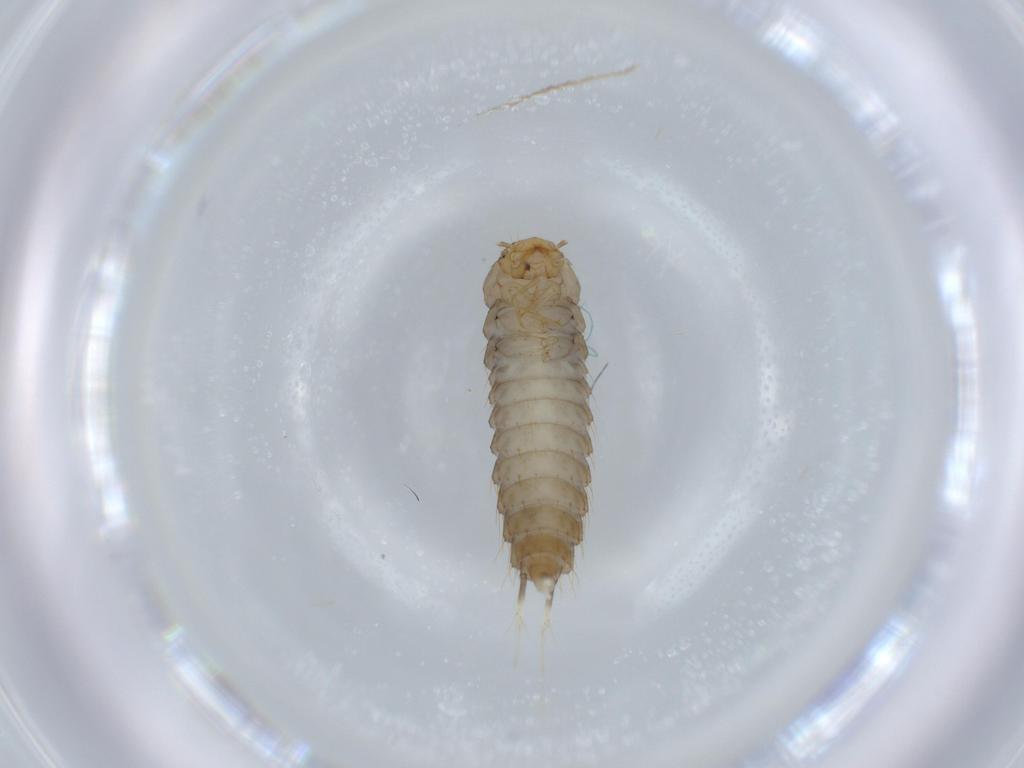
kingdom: Animalia
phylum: Arthropoda
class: Insecta
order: Coleoptera
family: Staphylinidae
